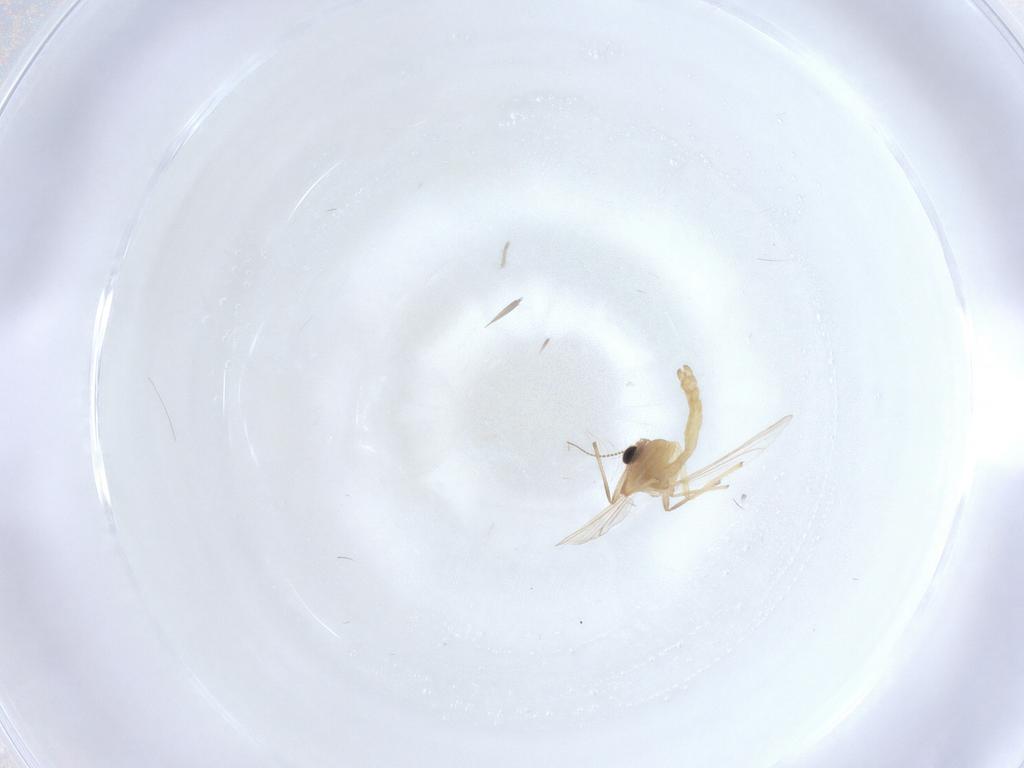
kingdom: Animalia
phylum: Arthropoda
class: Insecta
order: Diptera
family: Chironomidae
